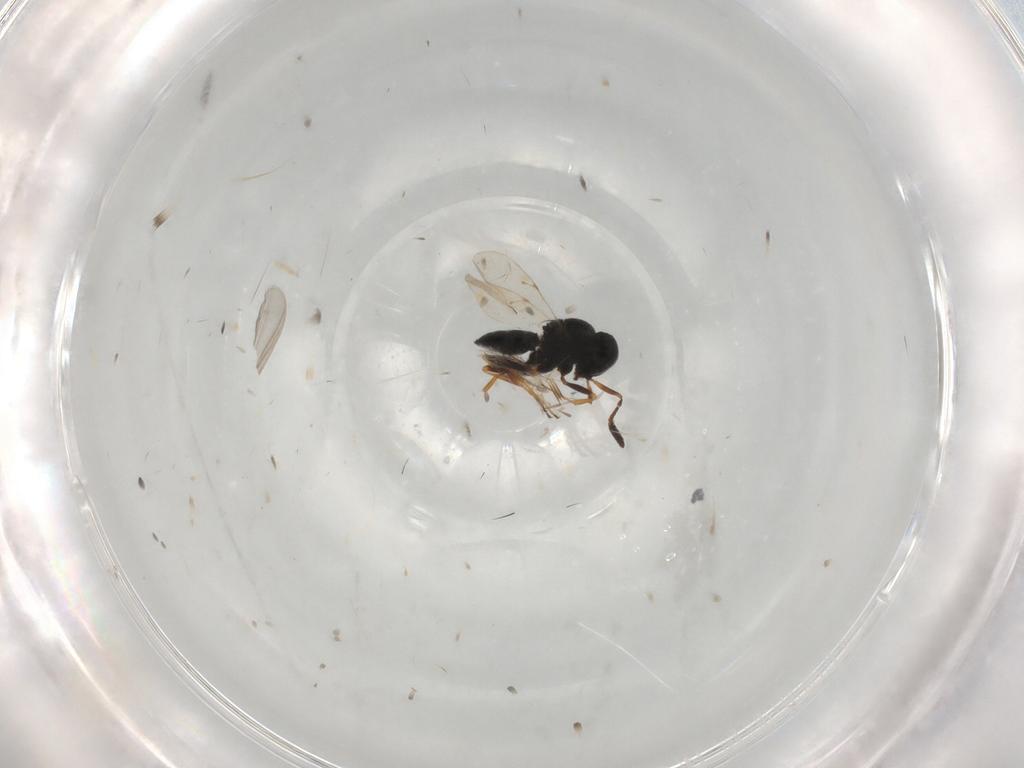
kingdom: Animalia
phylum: Arthropoda
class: Insecta
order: Coleoptera
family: Curculionidae
